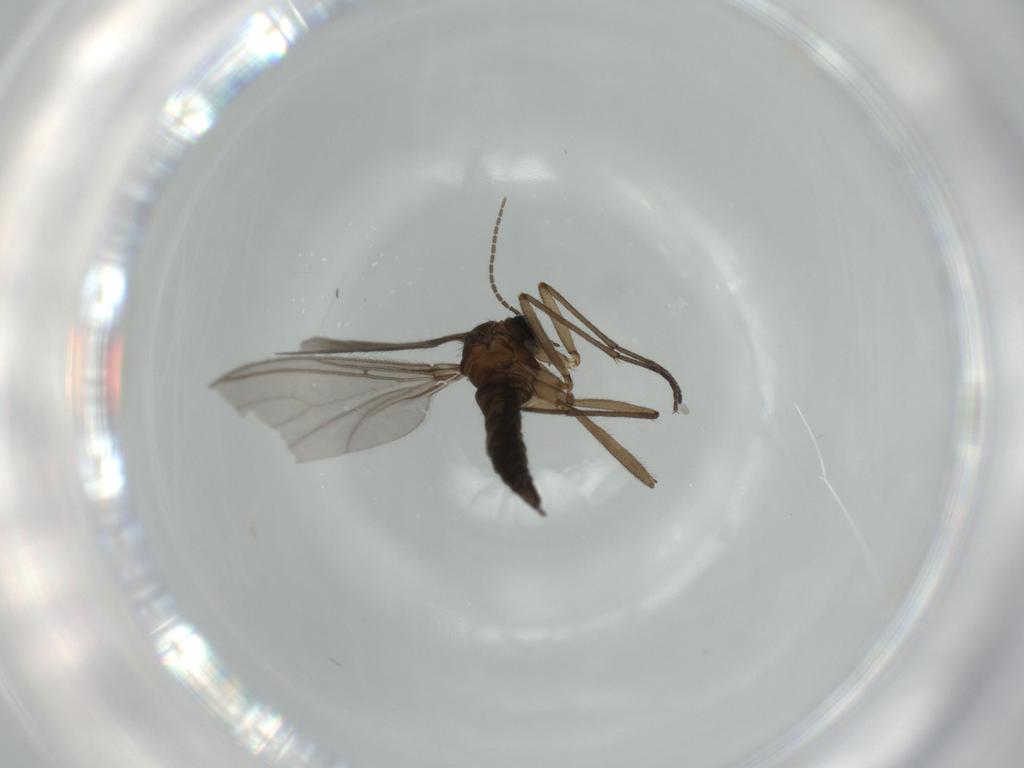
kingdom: Animalia
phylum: Arthropoda
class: Insecta
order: Diptera
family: Sciaridae
